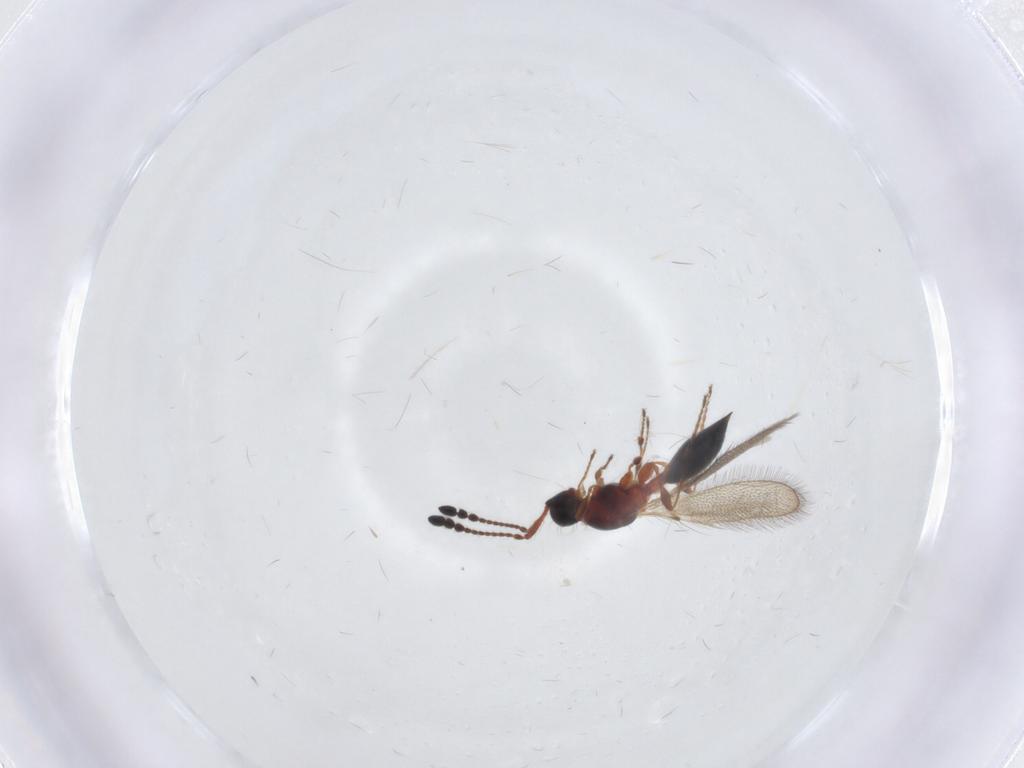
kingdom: Animalia
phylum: Arthropoda
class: Insecta
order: Hymenoptera
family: Diapriidae
